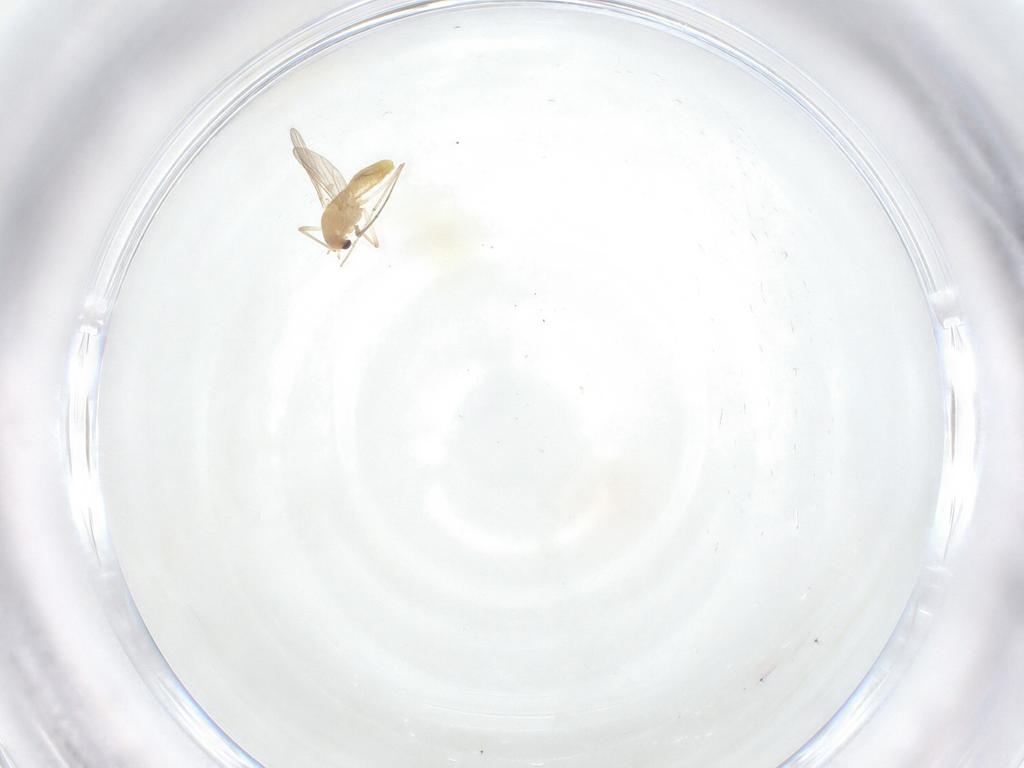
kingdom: Animalia
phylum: Arthropoda
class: Insecta
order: Diptera
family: Chironomidae
